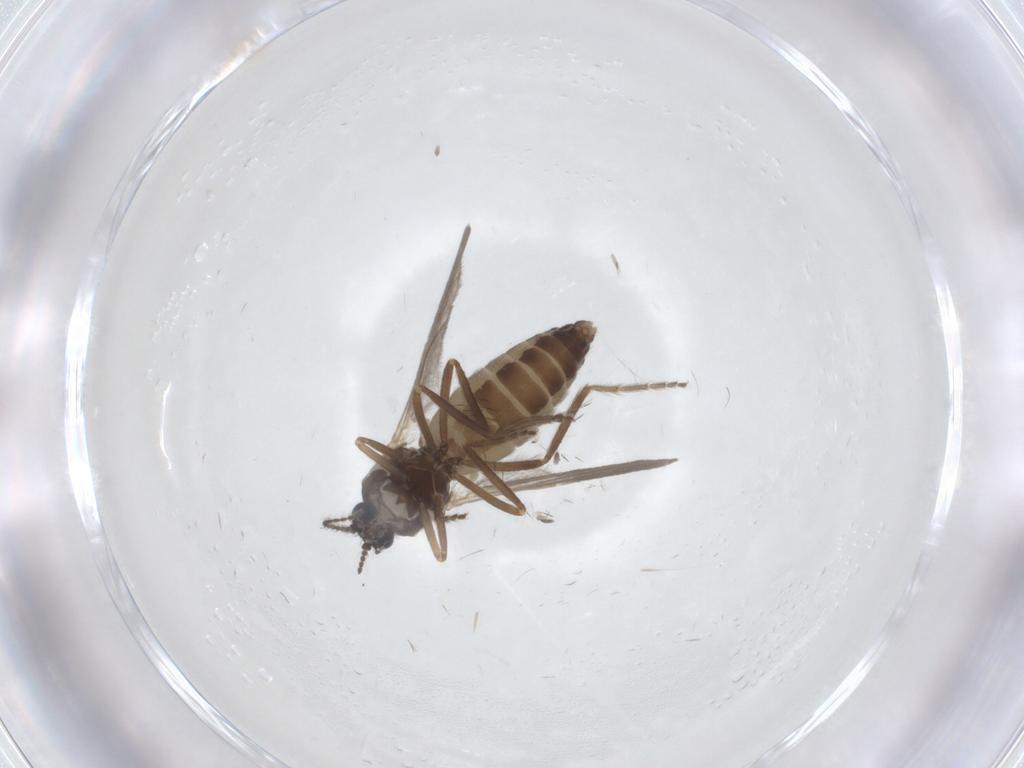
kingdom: Animalia
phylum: Arthropoda
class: Insecta
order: Diptera
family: Ceratopogonidae
